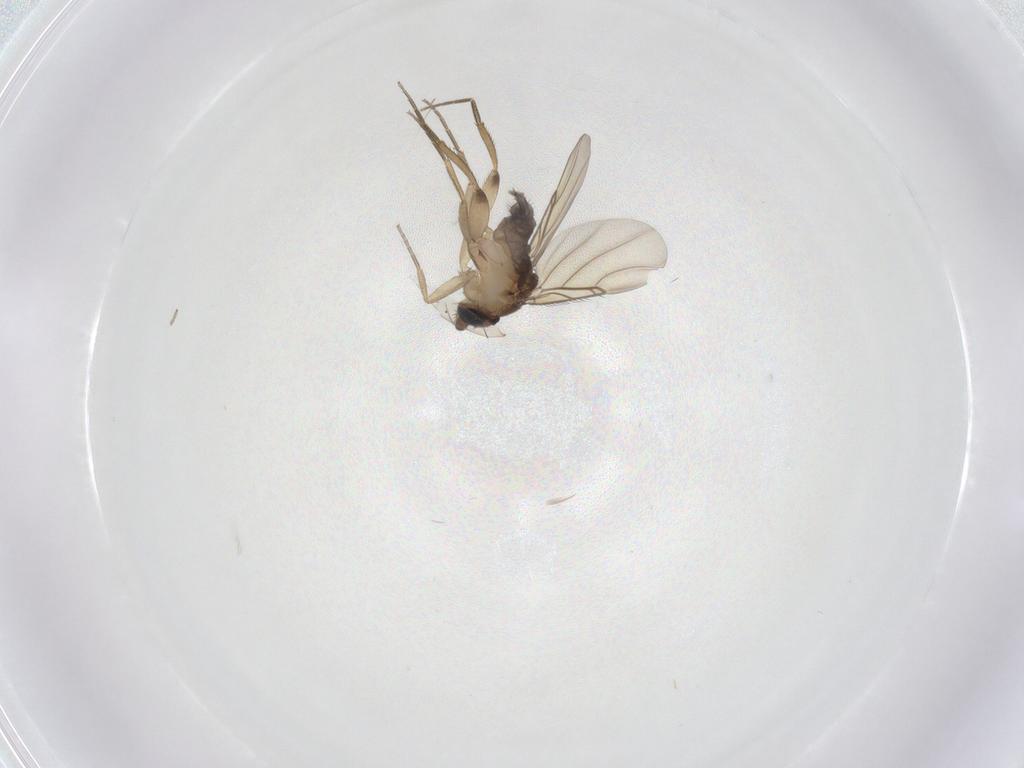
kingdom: Animalia
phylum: Arthropoda
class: Insecta
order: Diptera
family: Phoridae
